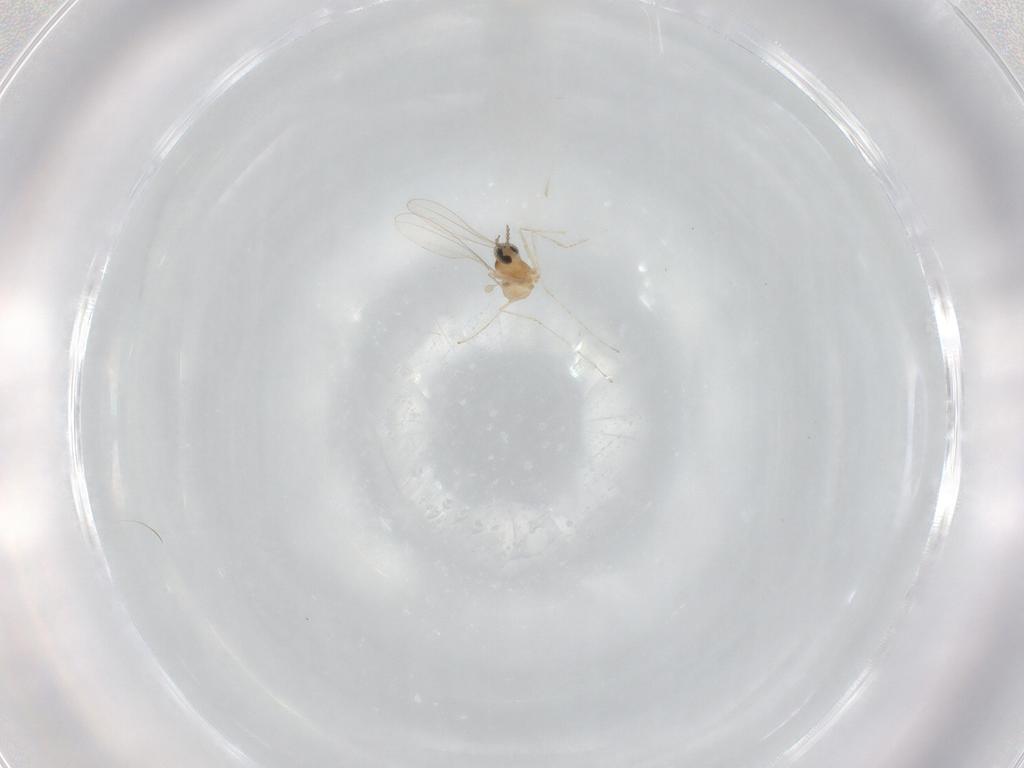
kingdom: Animalia
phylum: Arthropoda
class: Insecta
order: Diptera
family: Cecidomyiidae
